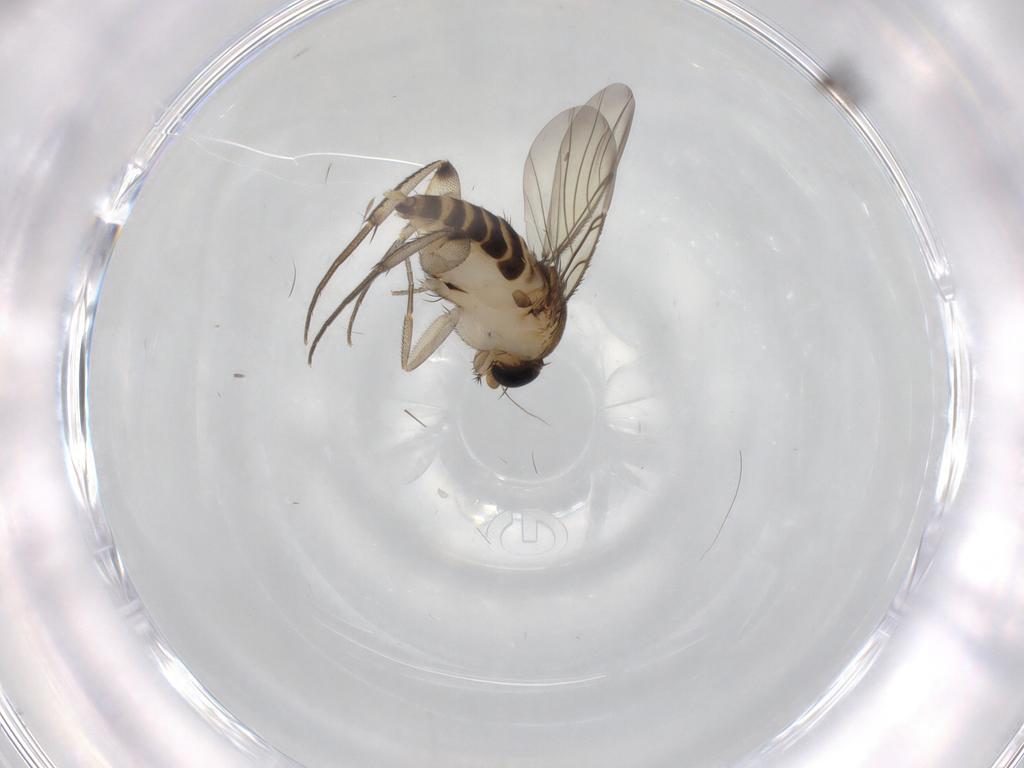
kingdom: Animalia
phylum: Arthropoda
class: Insecta
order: Diptera
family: Phoridae
